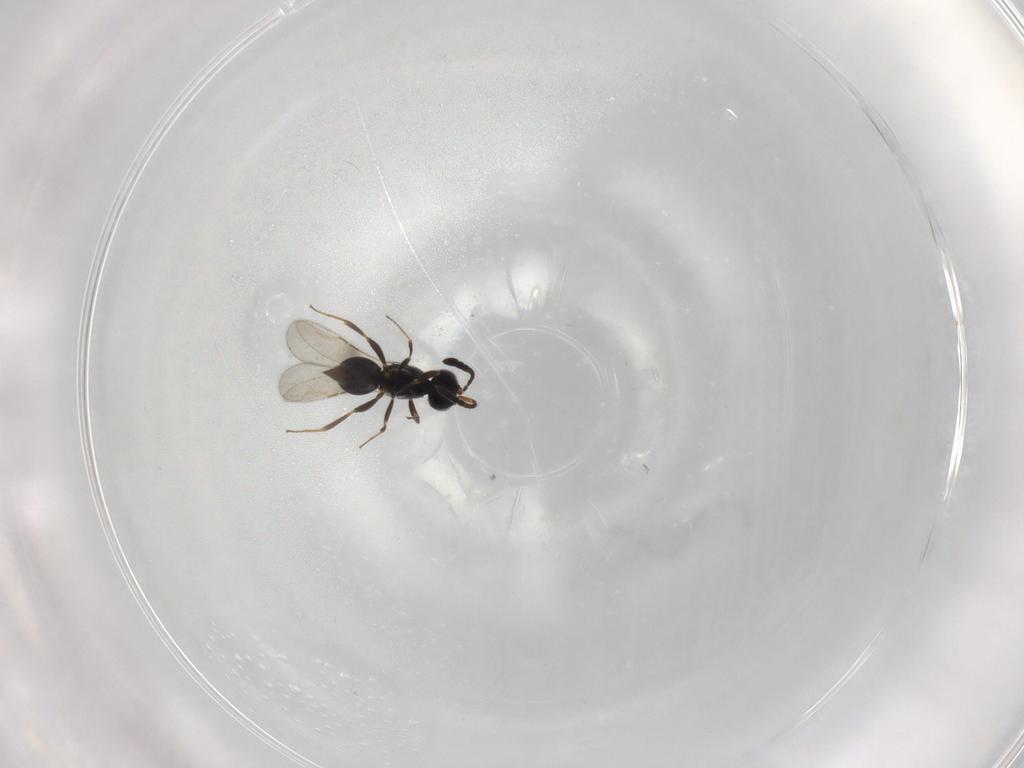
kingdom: Animalia
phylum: Arthropoda
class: Insecta
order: Hymenoptera
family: Ceraphronidae
